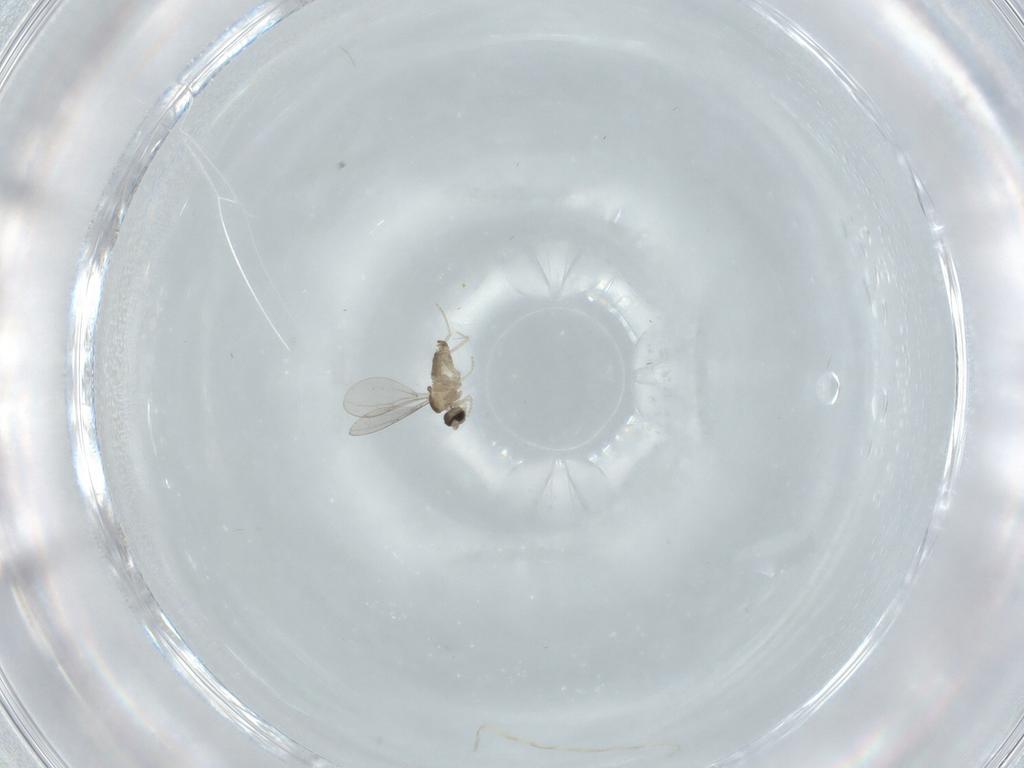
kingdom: Animalia
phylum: Arthropoda
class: Insecta
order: Diptera
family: Cecidomyiidae
